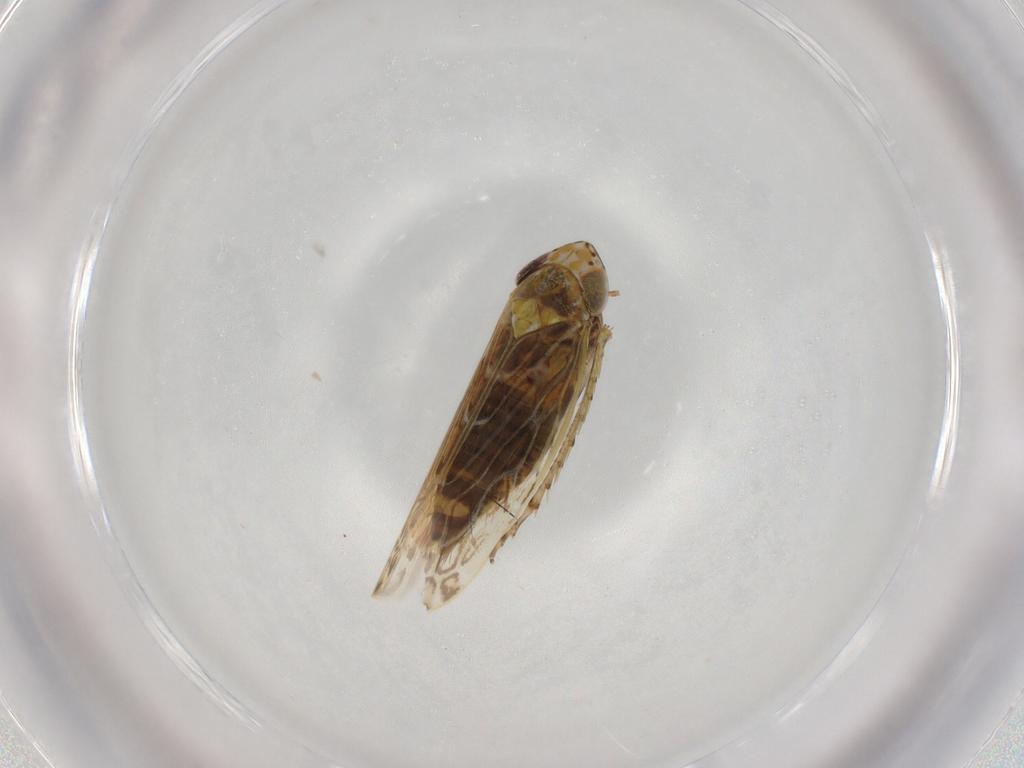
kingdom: Animalia
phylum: Arthropoda
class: Insecta
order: Hemiptera
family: Cicadellidae
